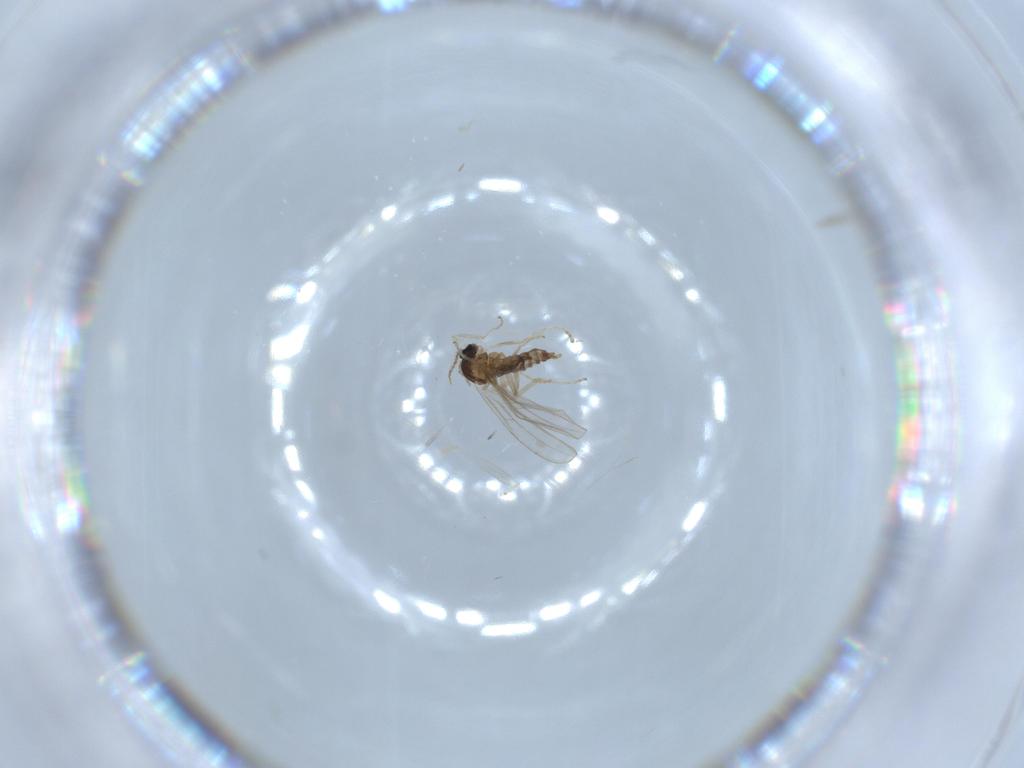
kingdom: Animalia
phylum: Arthropoda
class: Insecta
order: Diptera
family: Cecidomyiidae
